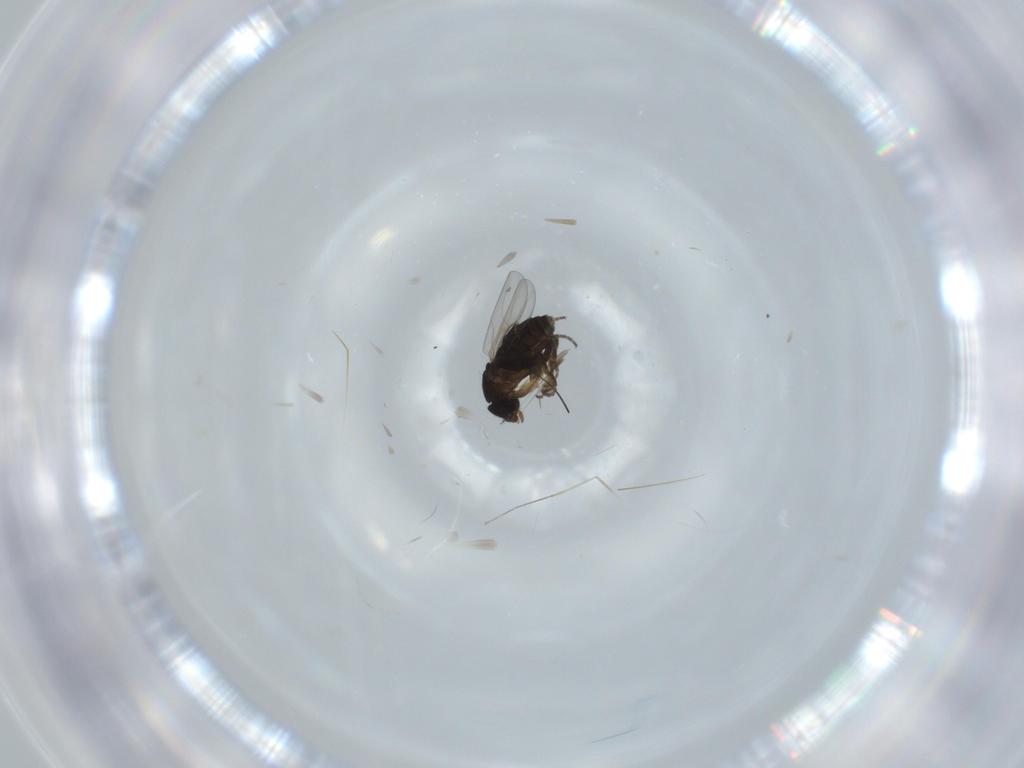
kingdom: Animalia
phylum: Arthropoda
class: Insecta
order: Diptera
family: Phoridae
